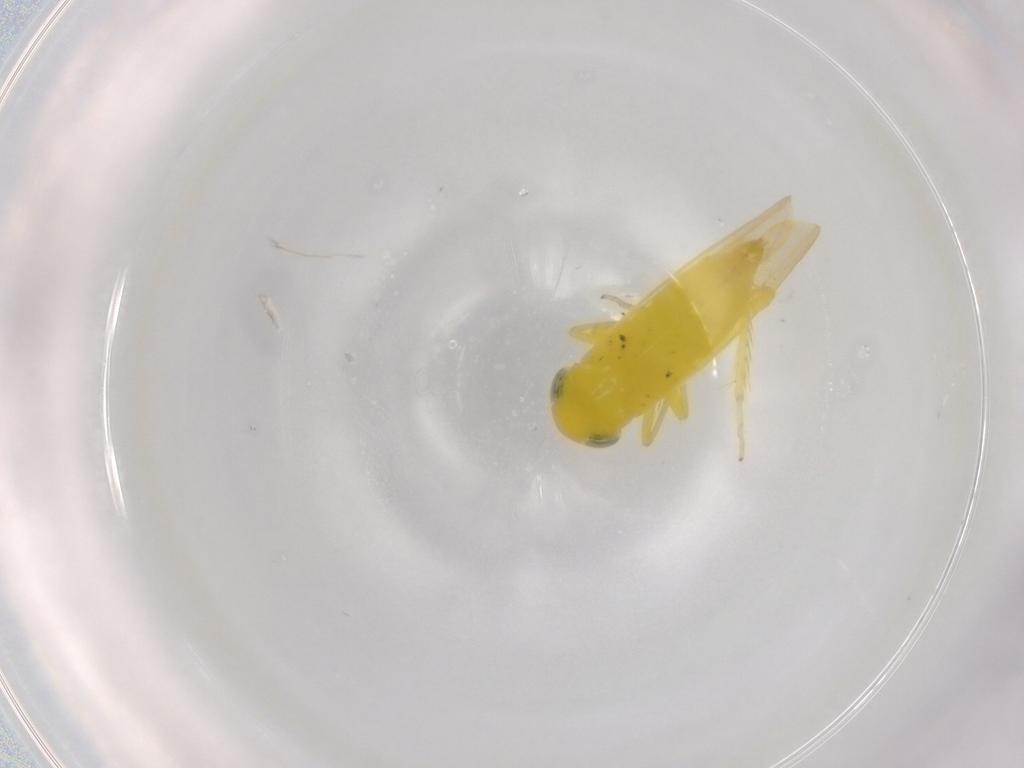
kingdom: Animalia
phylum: Arthropoda
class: Insecta
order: Hemiptera
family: Cicadellidae
